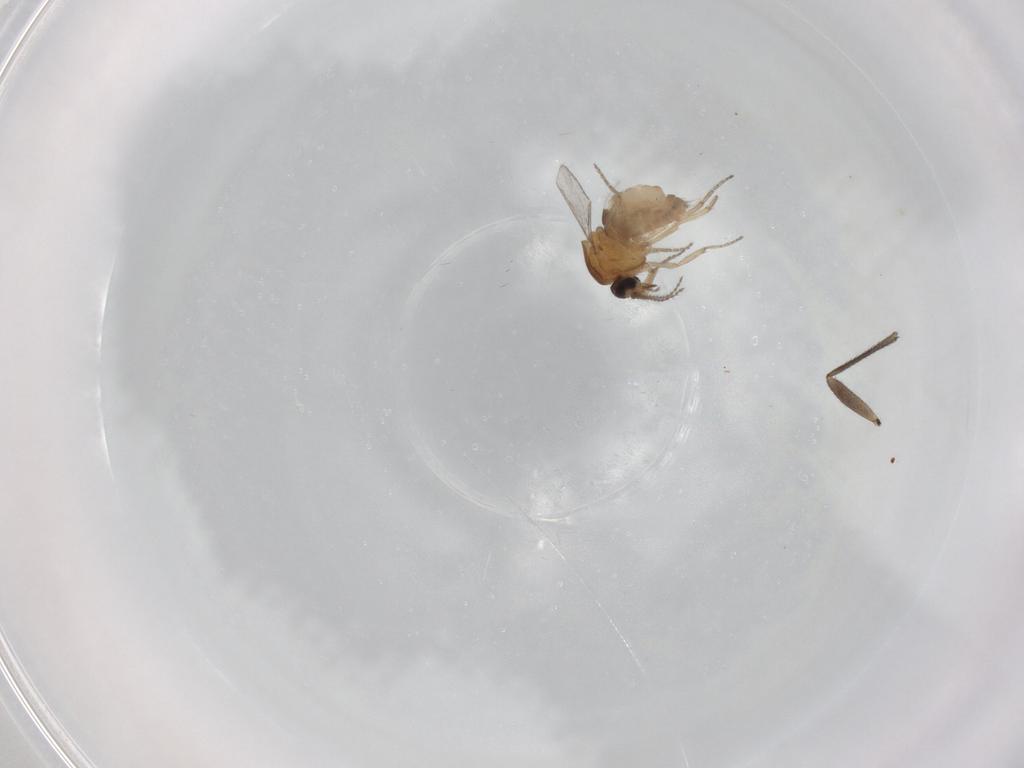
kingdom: Animalia
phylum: Arthropoda
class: Insecta
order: Diptera
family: Ceratopogonidae
